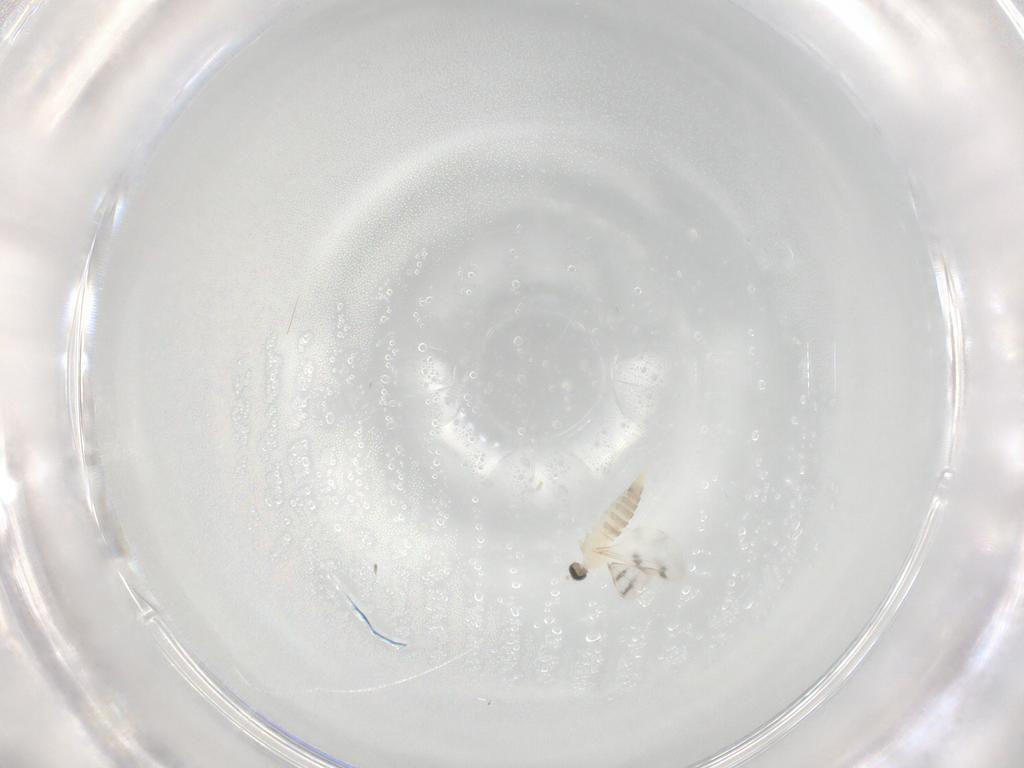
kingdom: Animalia
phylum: Arthropoda
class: Insecta
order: Diptera
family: Cecidomyiidae
